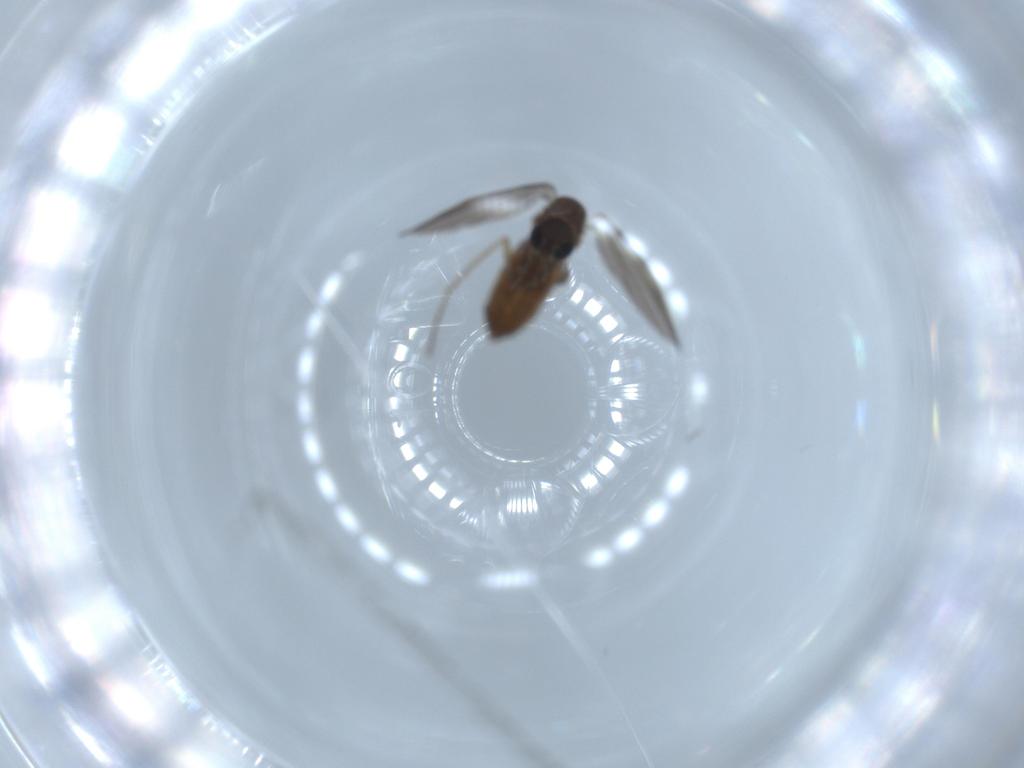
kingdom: Animalia
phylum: Arthropoda
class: Insecta
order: Diptera
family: Psychodidae
